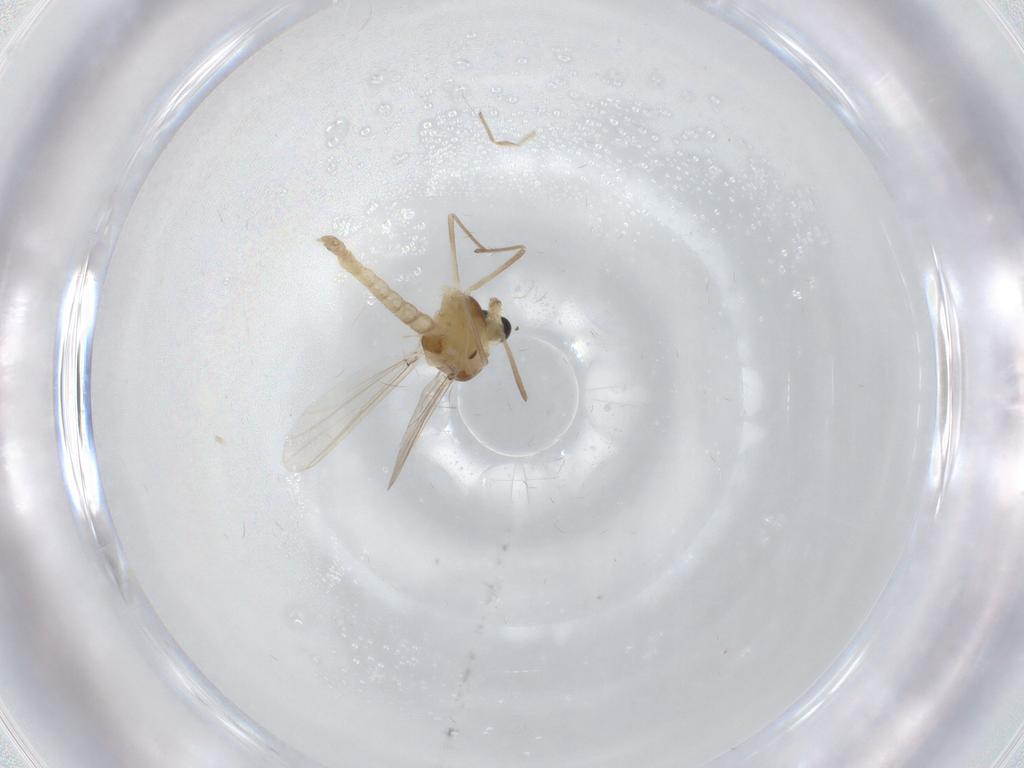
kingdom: Animalia
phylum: Arthropoda
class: Insecta
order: Diptera
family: Chironomidae
